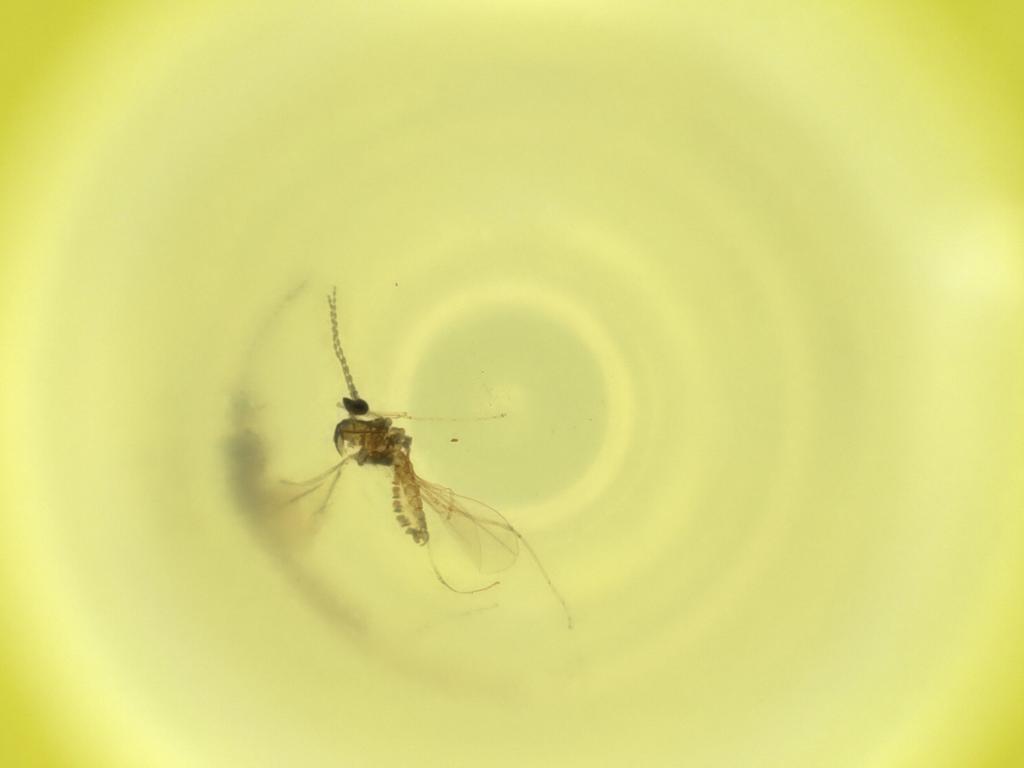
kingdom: Animalia
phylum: Arthropoda
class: Insecta
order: Diptera
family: Cecidomyiidae
